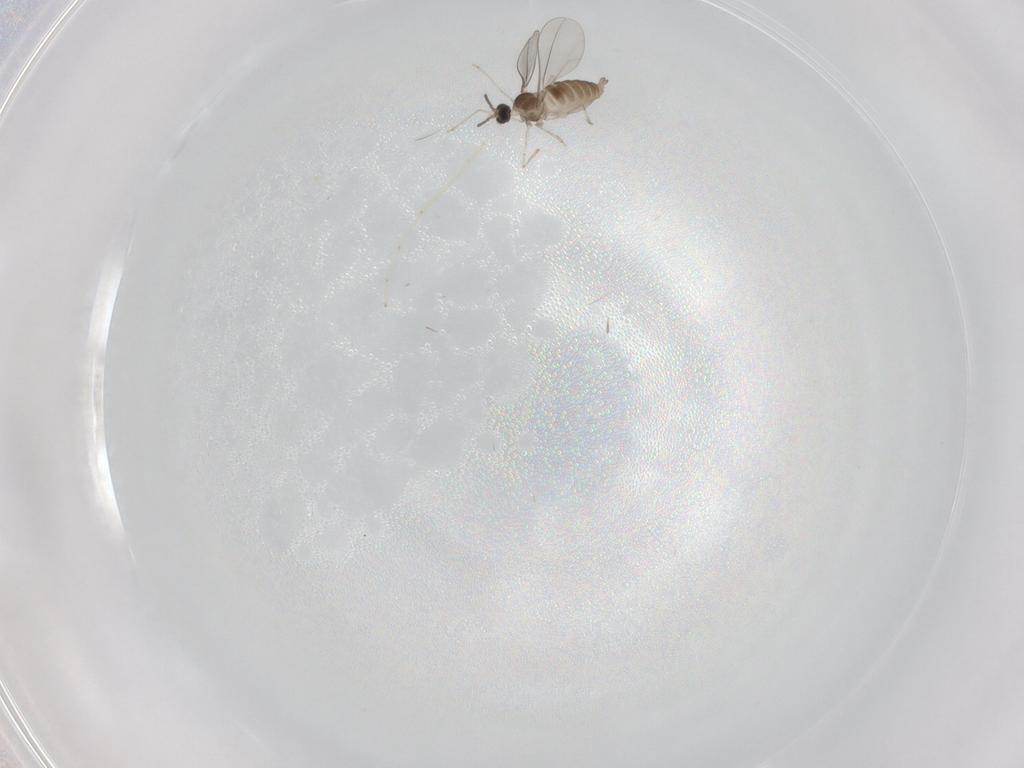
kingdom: Animalia
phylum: Arthropoda
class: Insecta
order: Diptera
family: Cecidomyiidae
